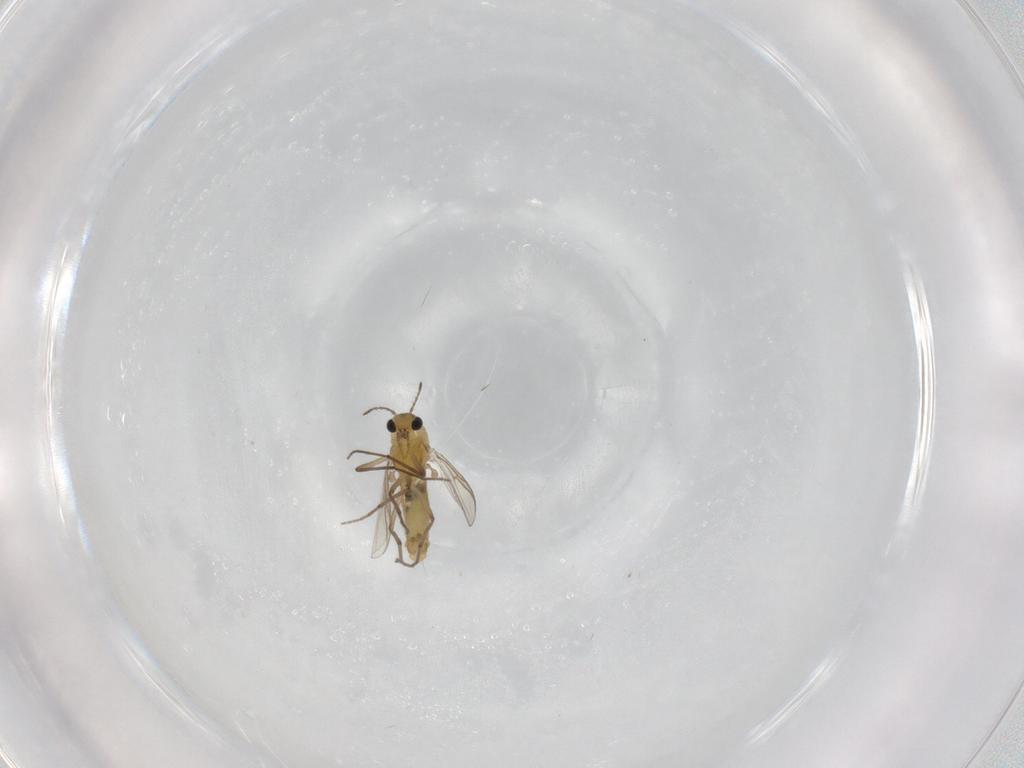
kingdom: Animalia
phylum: Arthropoda
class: Insecta
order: Diptera
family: Chironomidae
